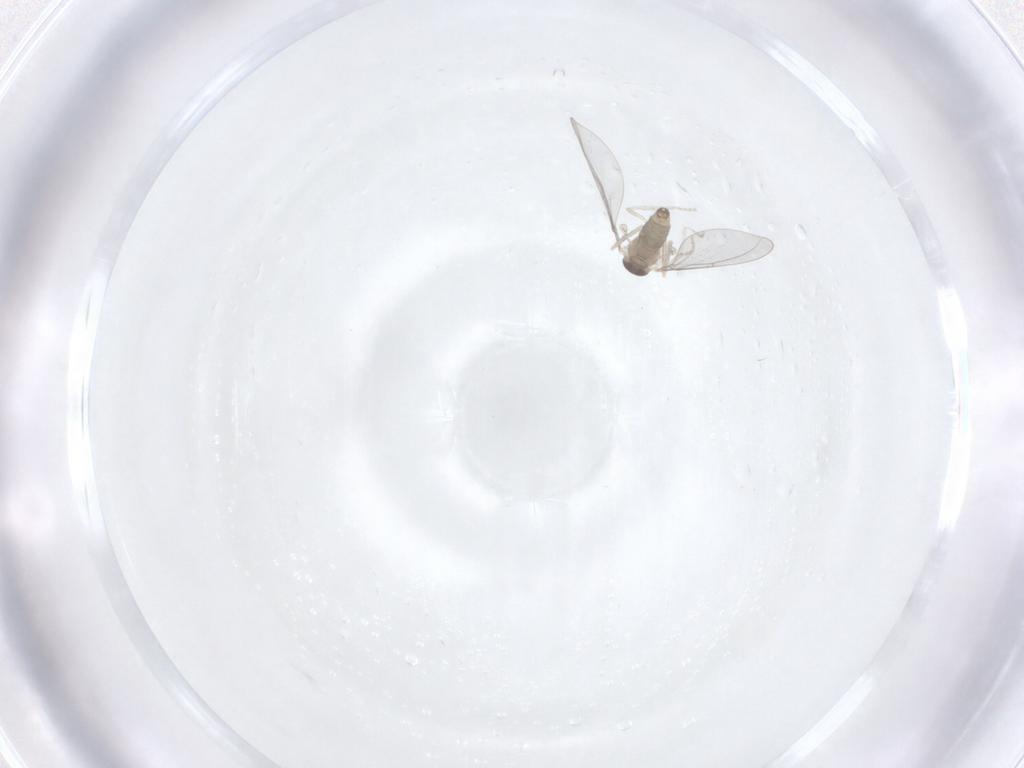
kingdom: Animalia
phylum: Arthropoda
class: Insecta
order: Diptera
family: Cecidomyiidae
